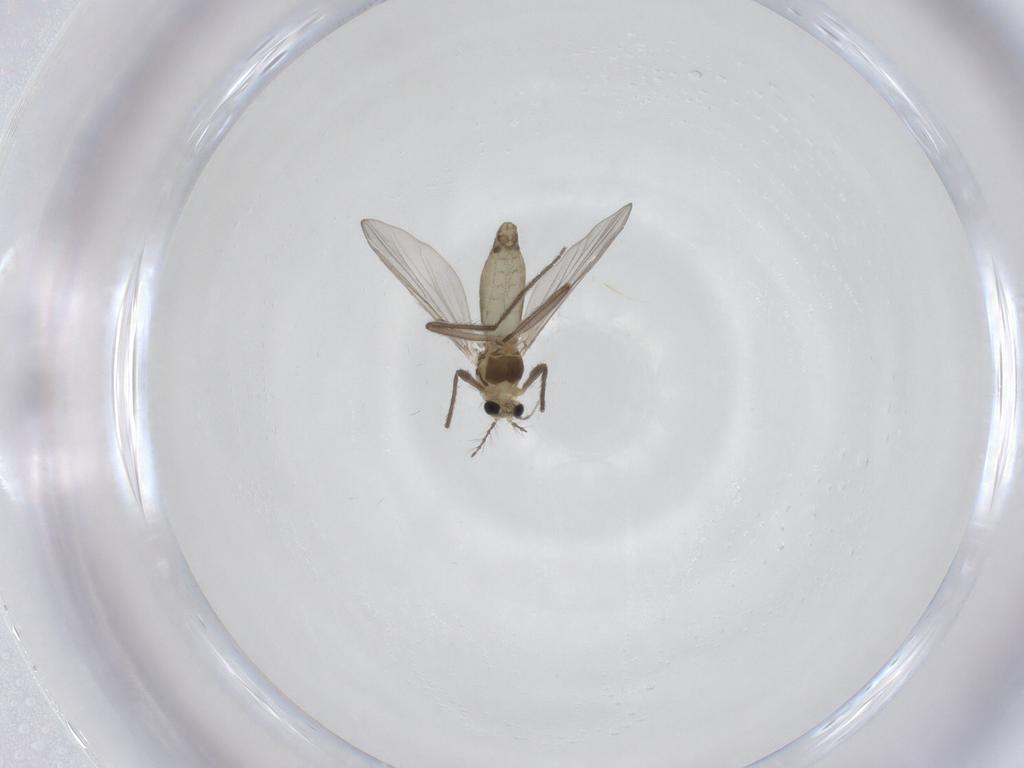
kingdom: Animalia
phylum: Arthropoda
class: Insecta
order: Diptera
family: Chironomidae
